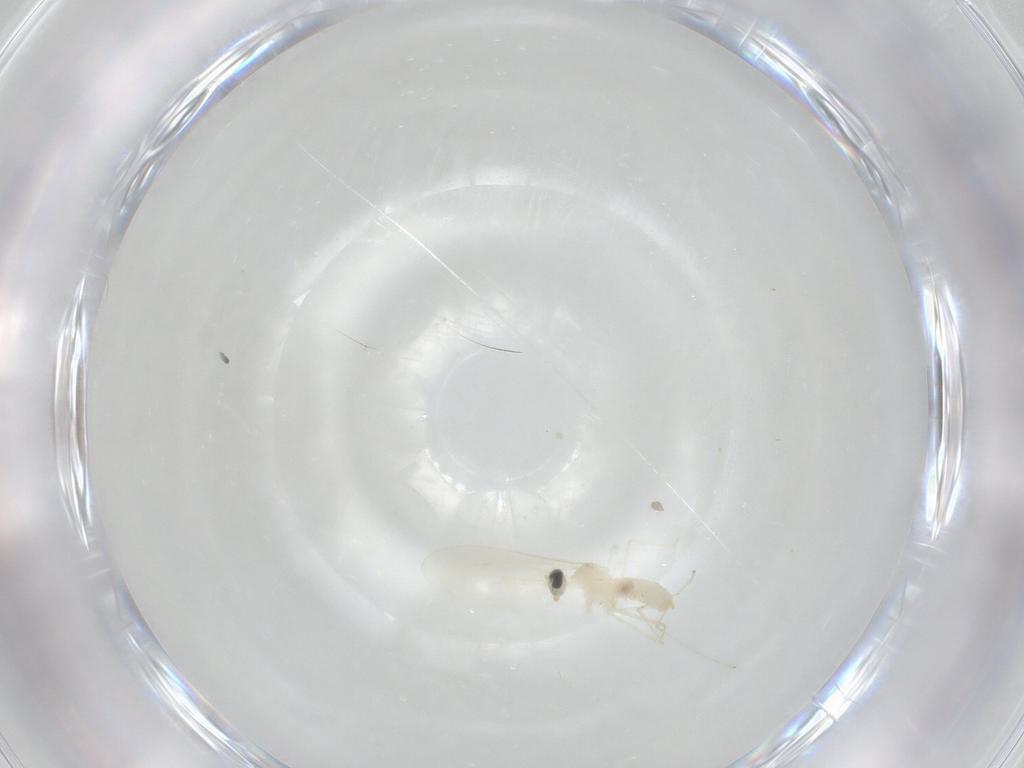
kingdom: Animalia
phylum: Arthropoda
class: Insecta
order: Diptera
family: Cecidomyiidae
